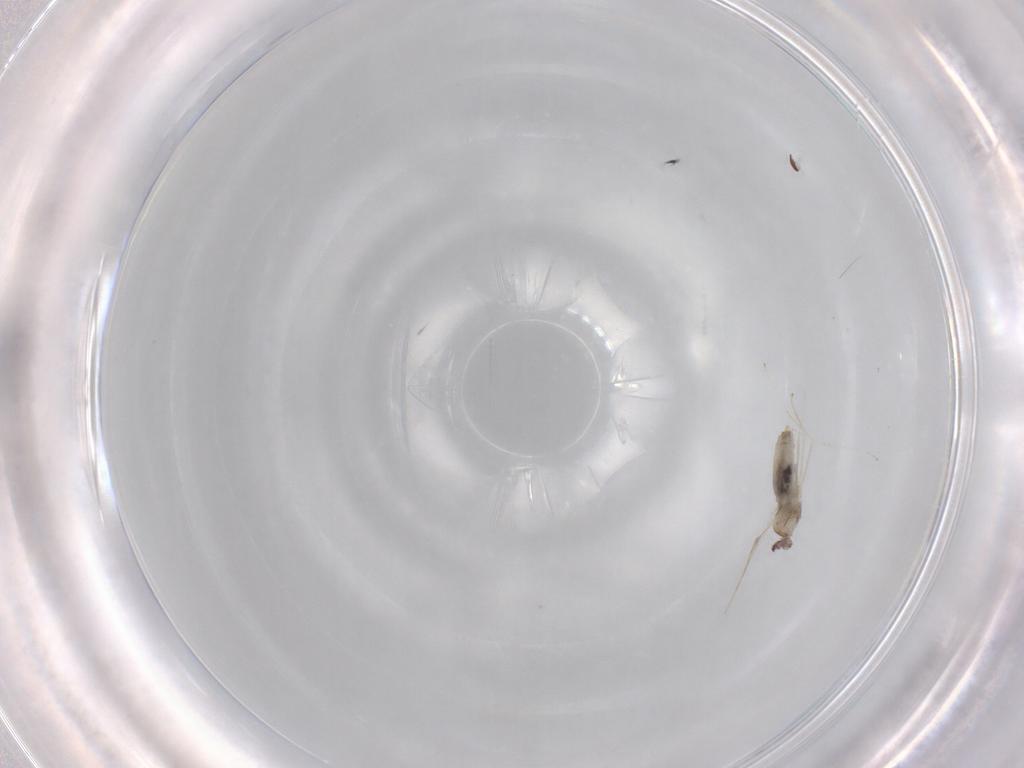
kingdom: Animalia
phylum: Arthropoda
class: Insecta
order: Diptera
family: Cecidomyiidae
